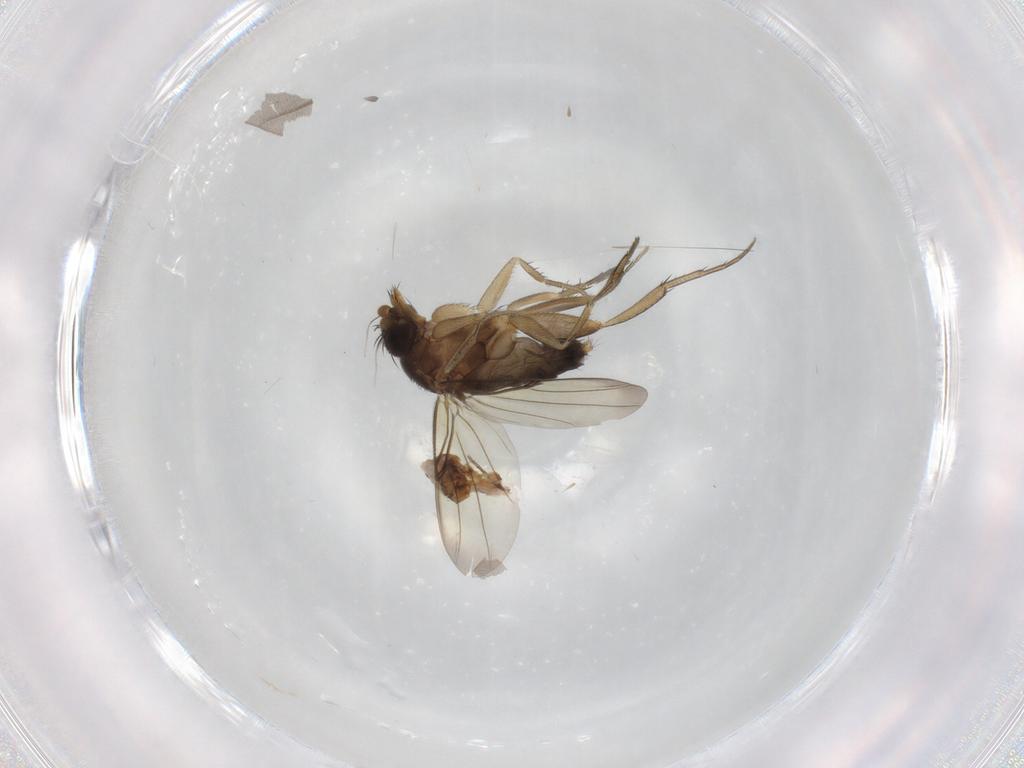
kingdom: Animalia
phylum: Arthropoda
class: Insecta
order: Diptera
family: Phoridae
